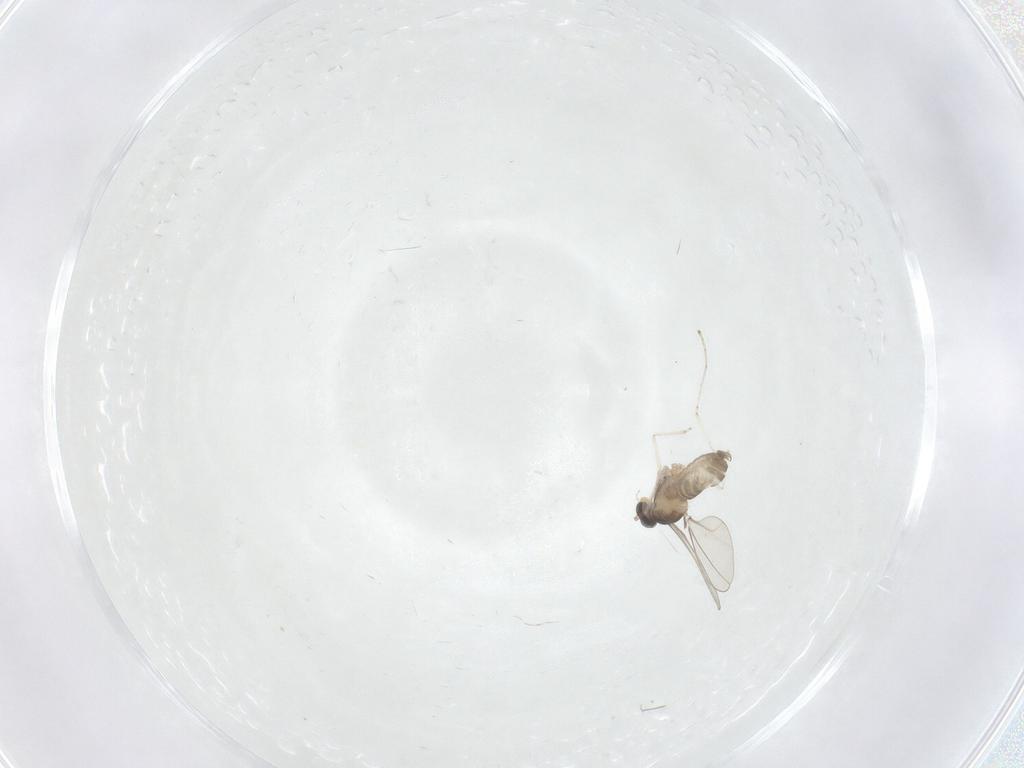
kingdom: Animalia
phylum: Arthropoda
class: Insecta
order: Diptera
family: Cecidomyiidae
